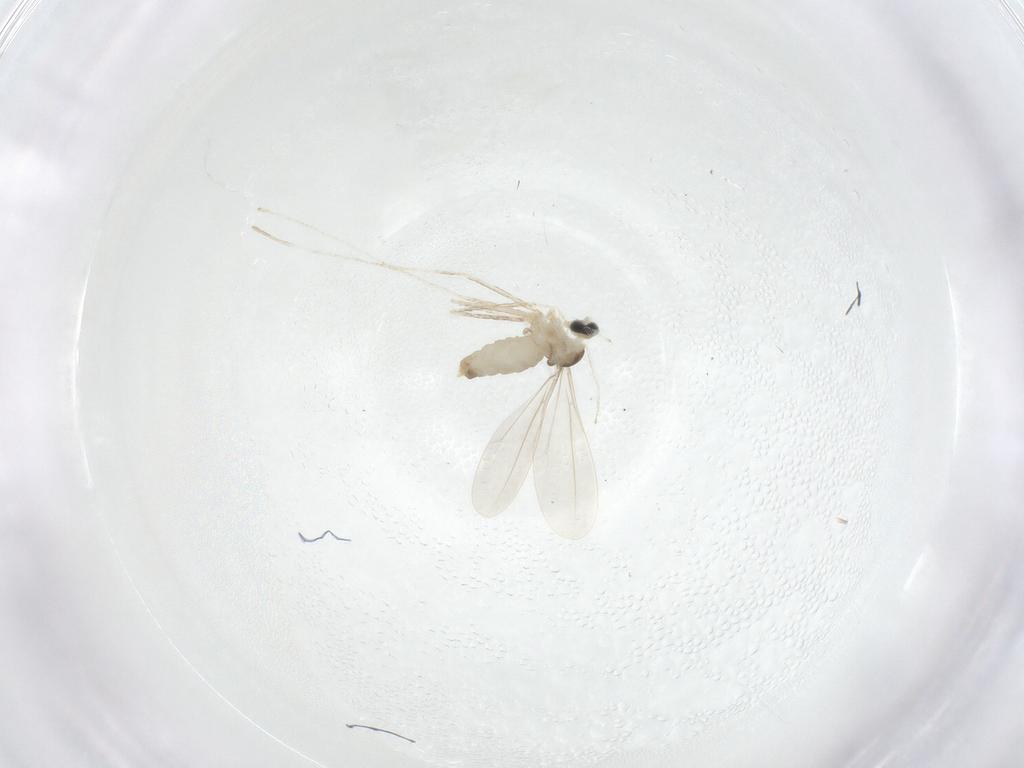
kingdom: Animalia
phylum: Arthropoda
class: Insecta
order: Diptera
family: Cecidomyiidae
